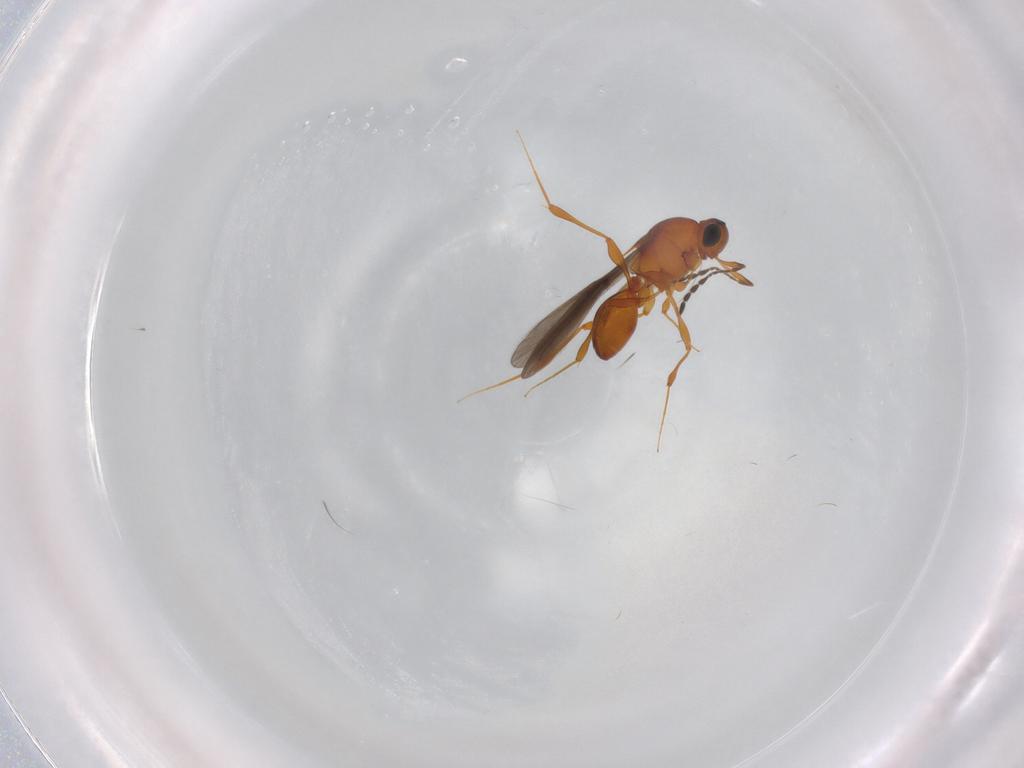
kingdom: Animalia
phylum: Arthropoda
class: Insecta
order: Hymenoptera
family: Platygastridae
